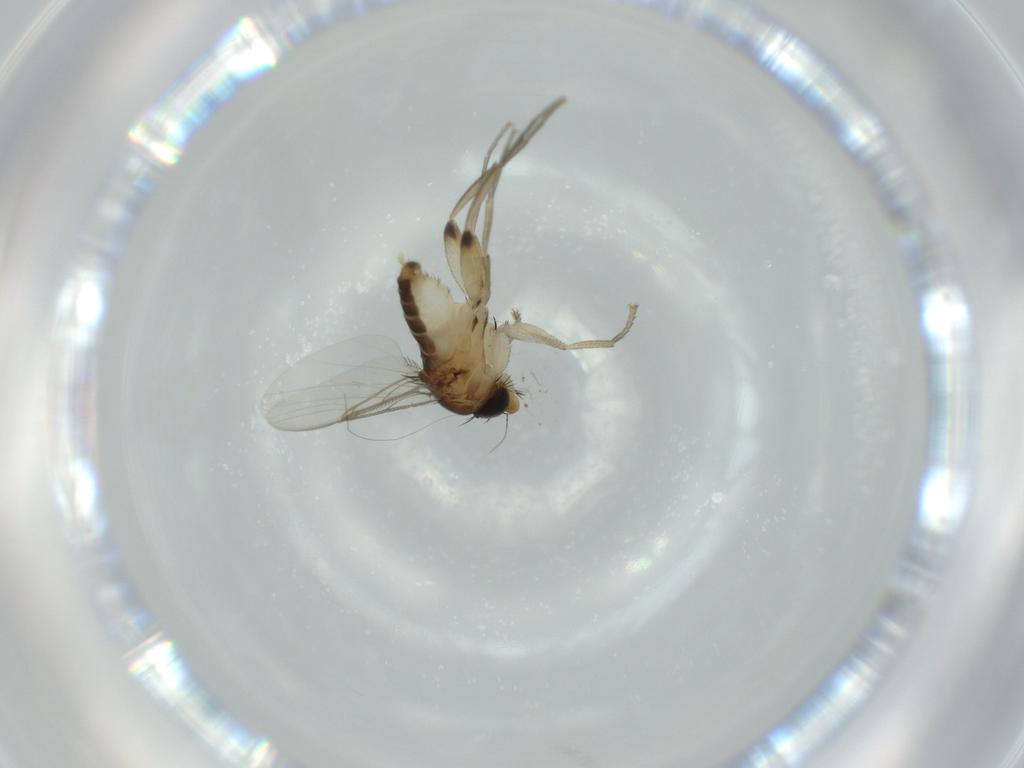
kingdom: Animalia
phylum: Arthropoda
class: Insecta
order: Diptera
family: Phoridae
